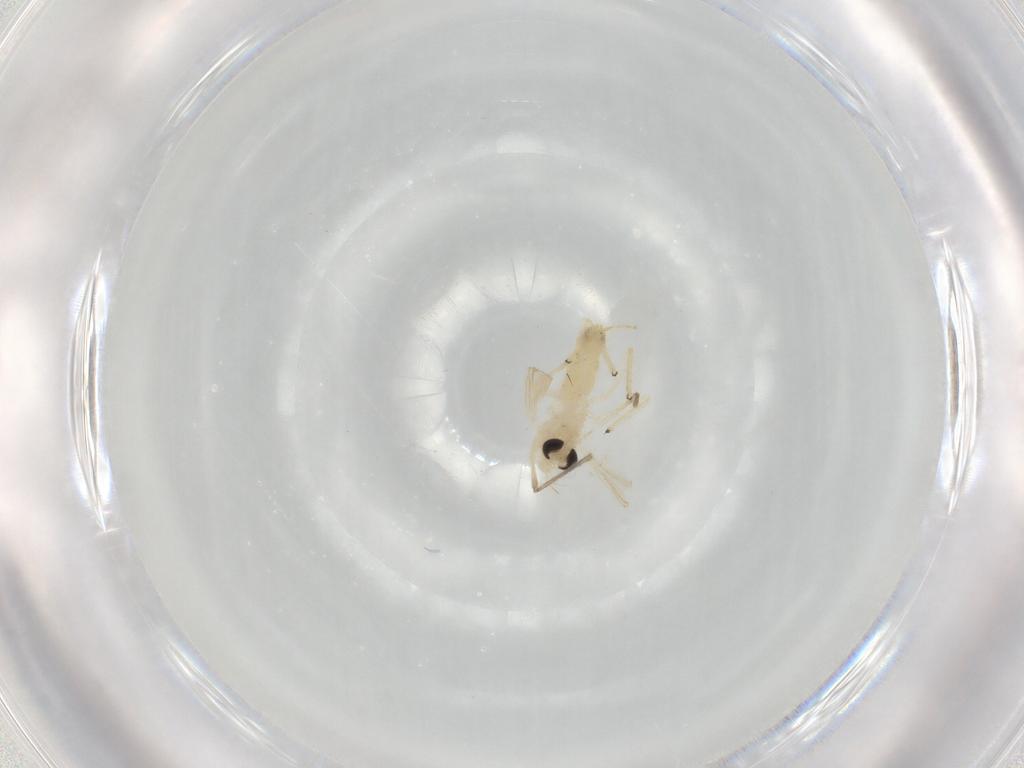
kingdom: Animalia
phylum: Arthropoda
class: Insecta
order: Diptera
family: Chironomidae
